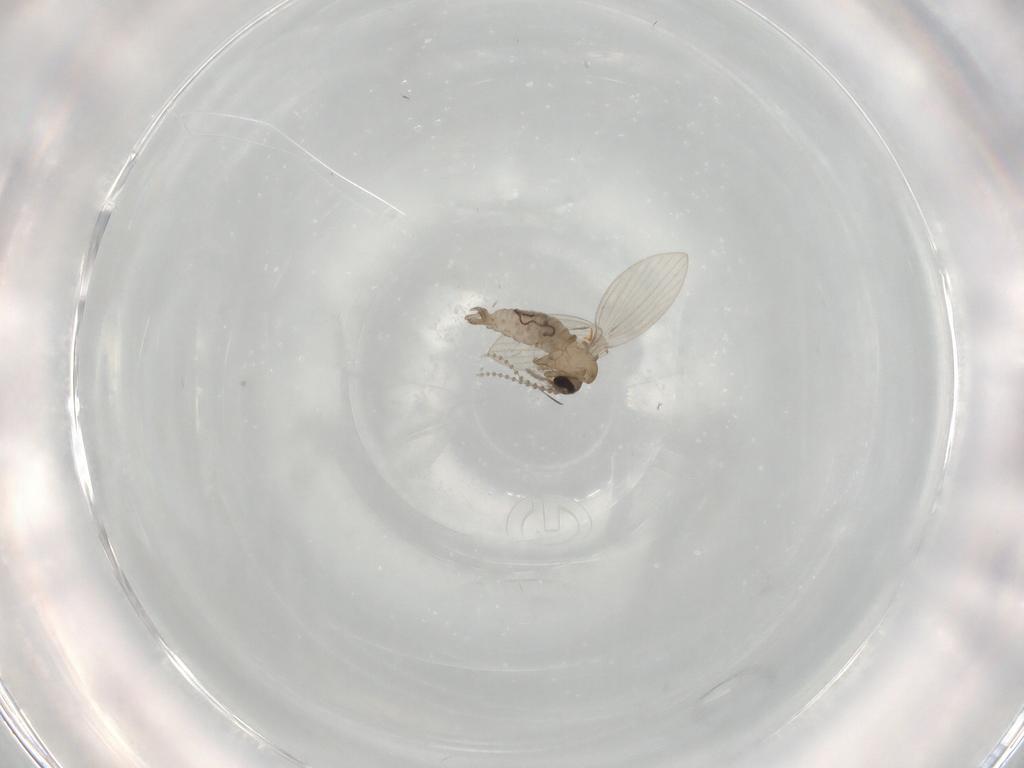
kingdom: Animalia
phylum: Arthropoda
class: Insecta
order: Diptera
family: Psychodidae
